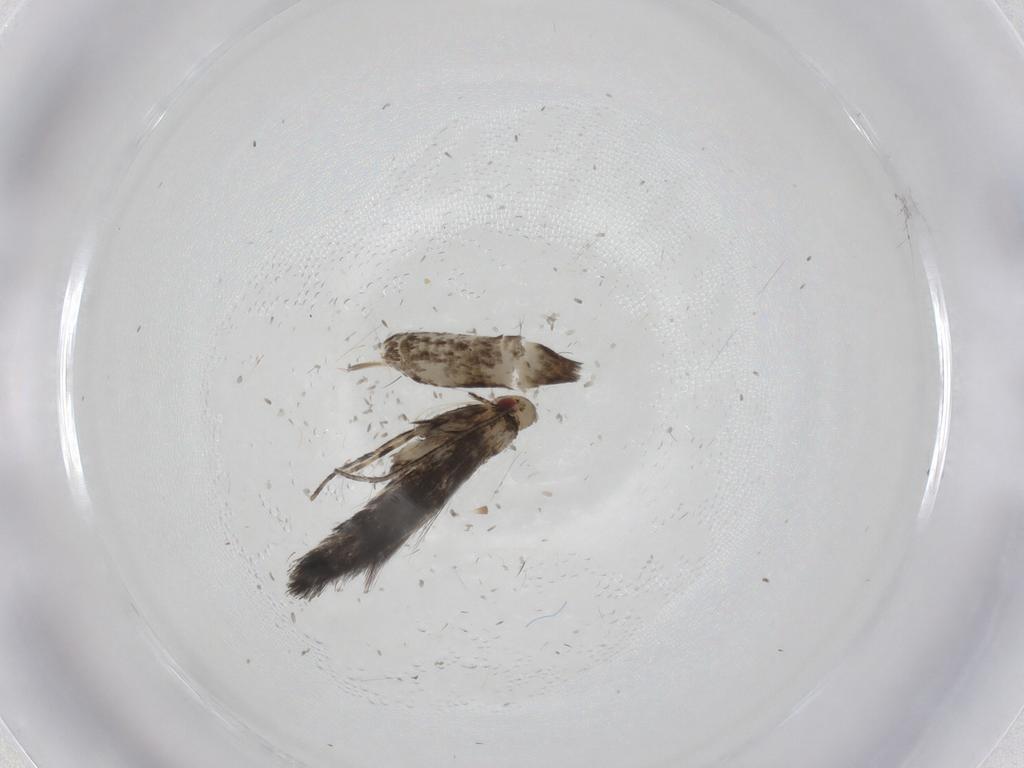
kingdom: Animalia
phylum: Arthropoda
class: Insecta
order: Lepidoptera
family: Gracillariidae
